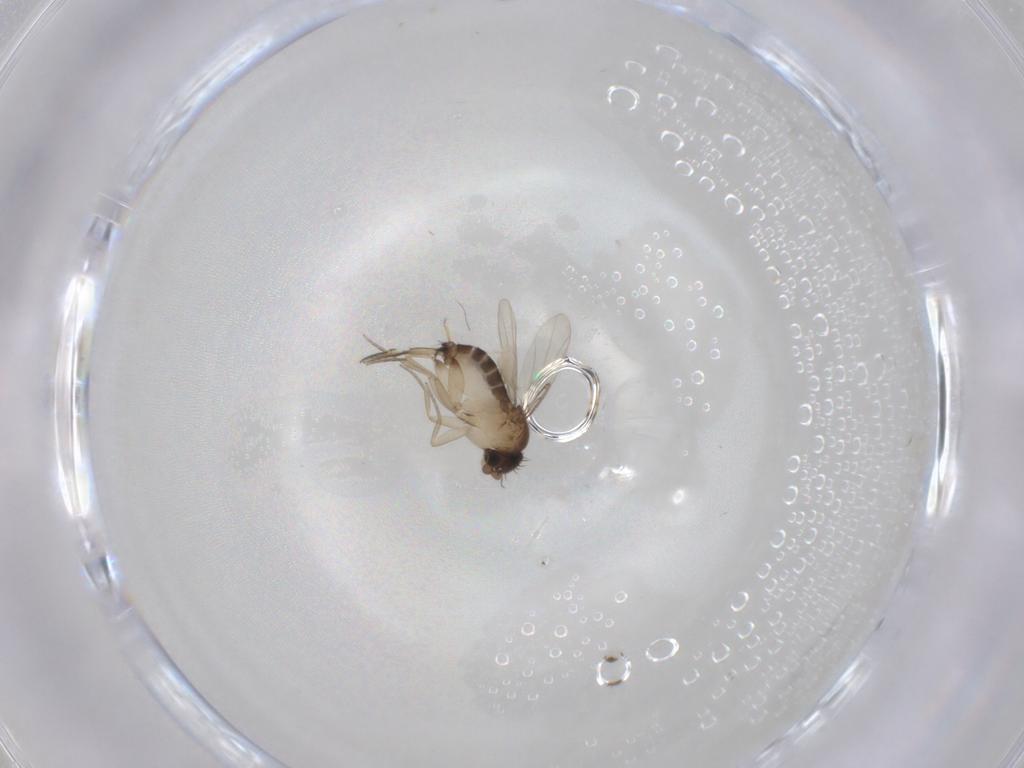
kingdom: Animalia
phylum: Arthropoda
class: Insecta
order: Diptera
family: Phoridae
